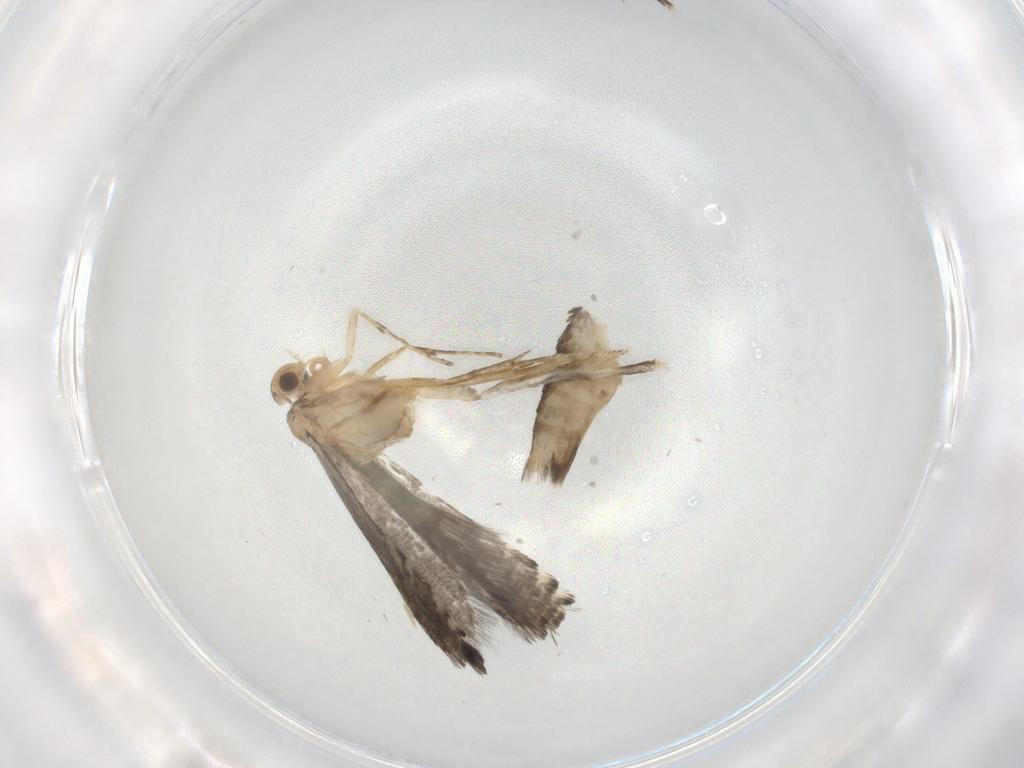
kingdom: Animalia
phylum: Arthropoda
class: Insecta
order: Lepidoptera
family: Glyphipterigidae
